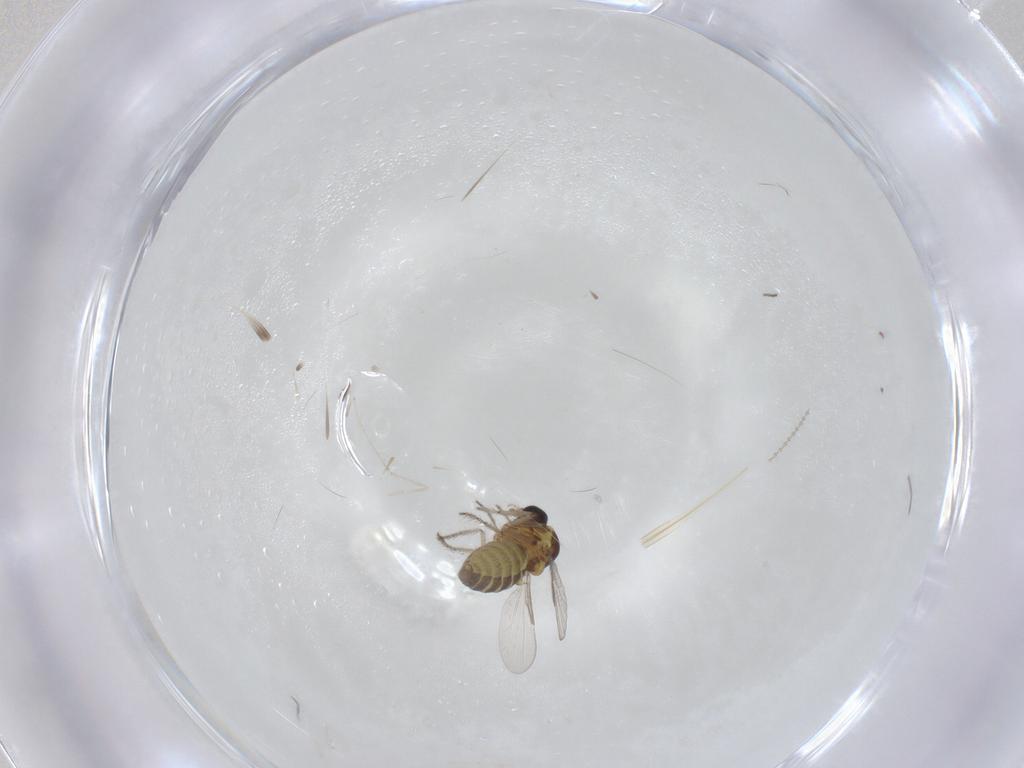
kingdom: Animalia
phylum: Arthropoda
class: Insecta
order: Diptera
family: Ceratopogonidae
